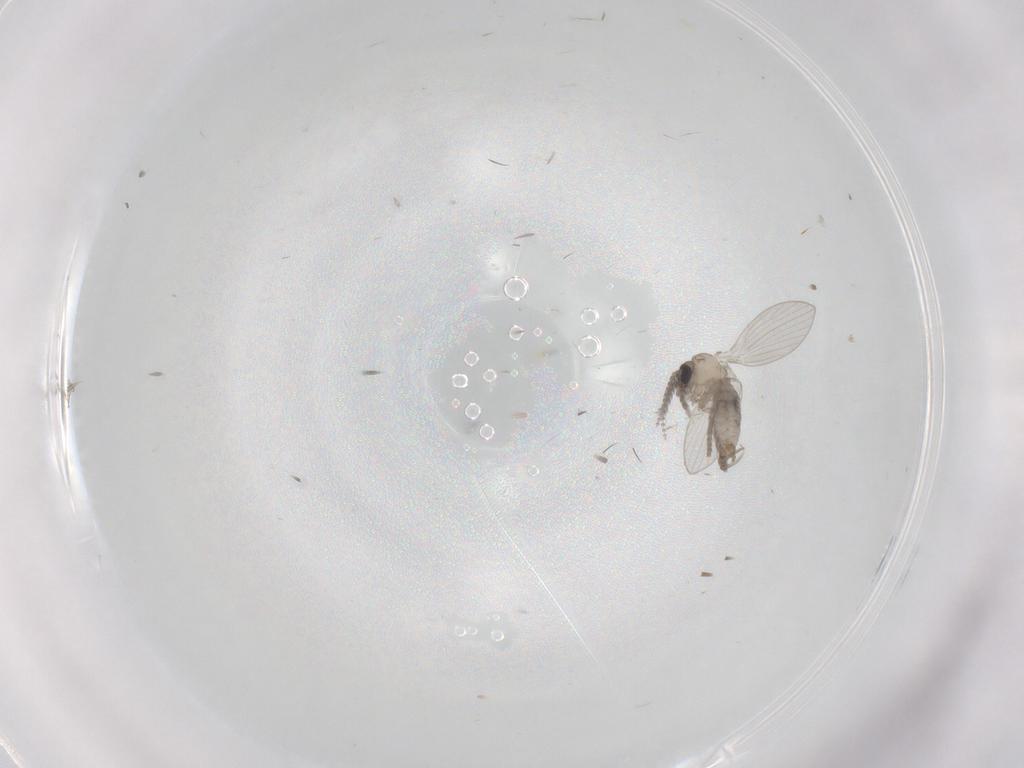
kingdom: Animalia
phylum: Arthropoda
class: Insecta
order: Diptera
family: Psychodidae
